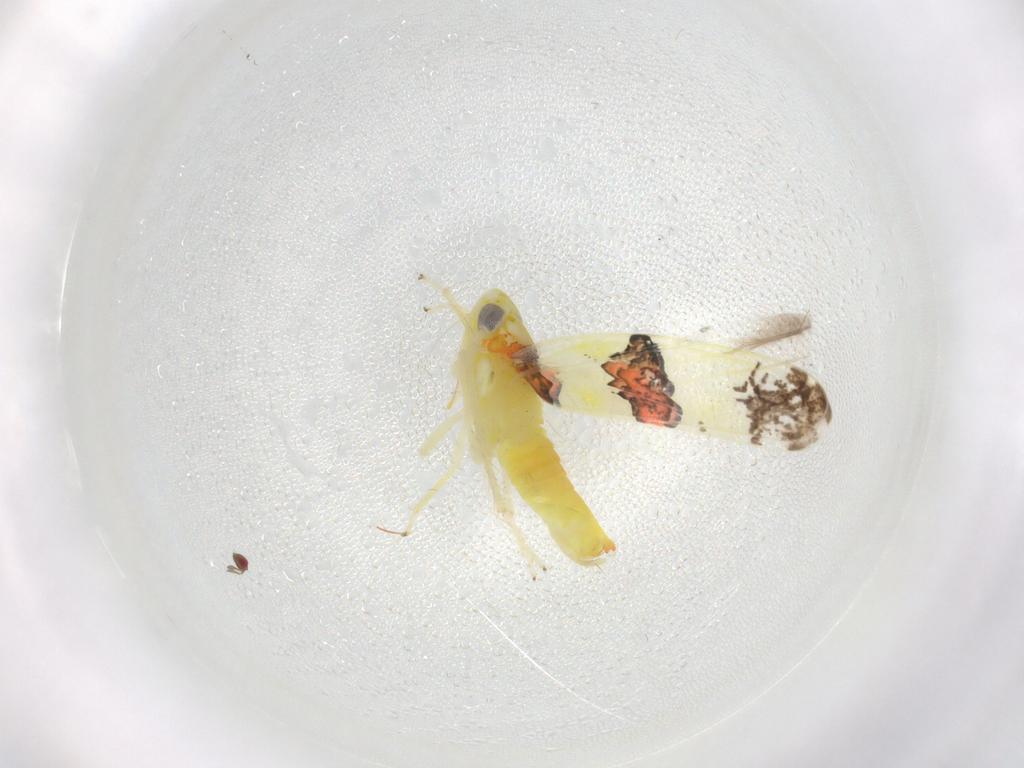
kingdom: Animalia
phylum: Arthropoda
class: Insecta
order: Hemiptera
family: Cicadellidae
